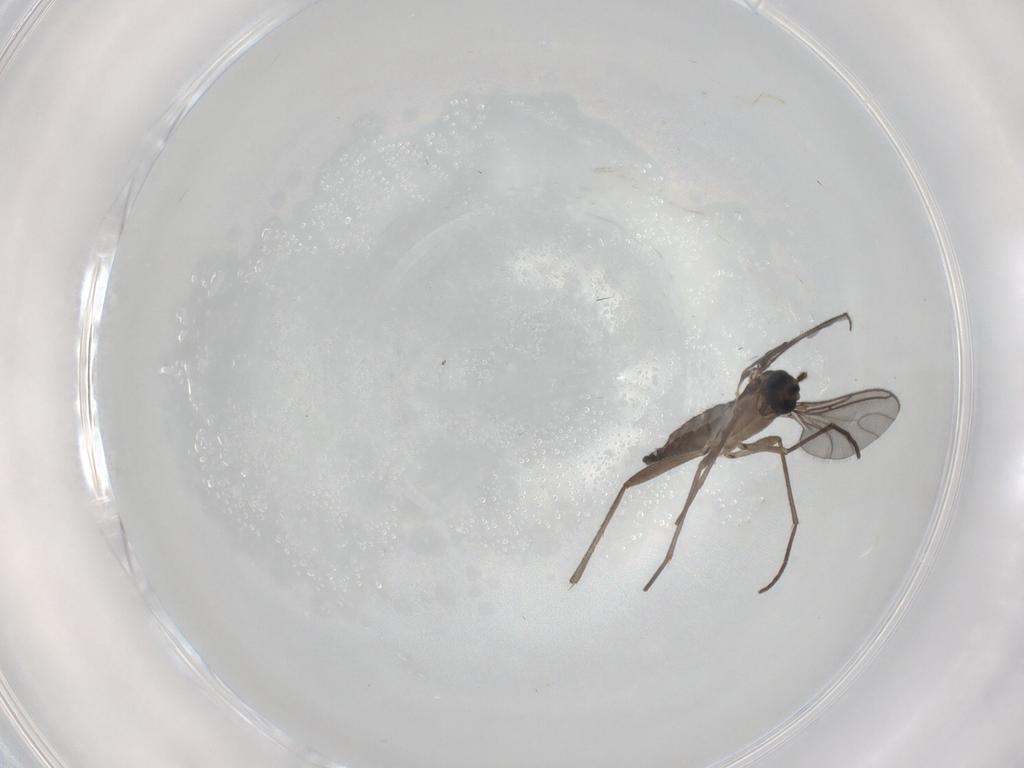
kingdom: Animalia
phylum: Arthropoda
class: Insecta
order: Diptera
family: Sciaridae
